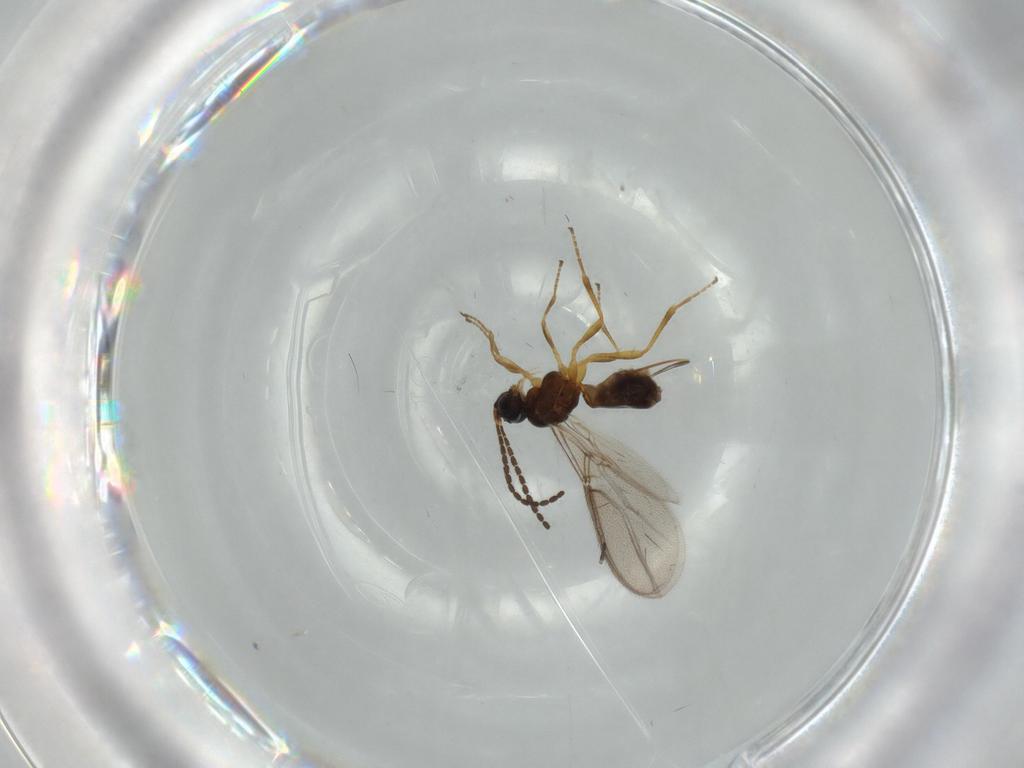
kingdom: Animalia
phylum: Arthropoda
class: Insecta
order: Hymenoptera
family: Braconidae
